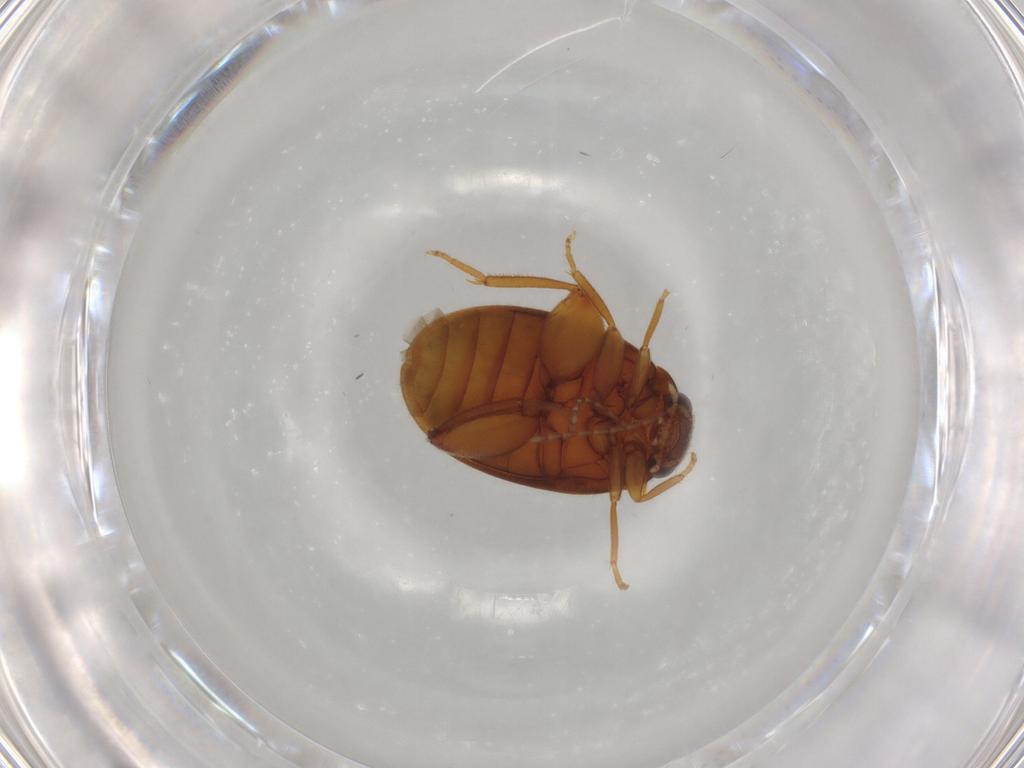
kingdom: Animalia
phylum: Arthropoda
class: Insecta
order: Coleoptera
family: Scirtidae
